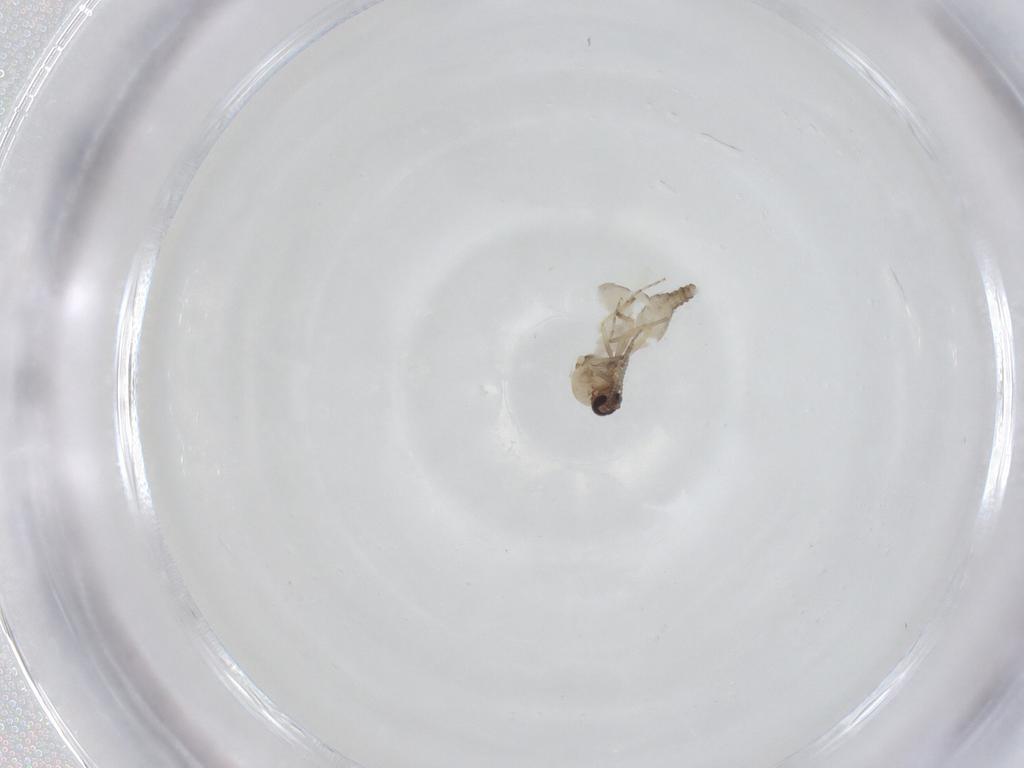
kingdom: Animalia
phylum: Arthropoda
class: Insecta
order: Diptera
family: Ceratopogonidae
